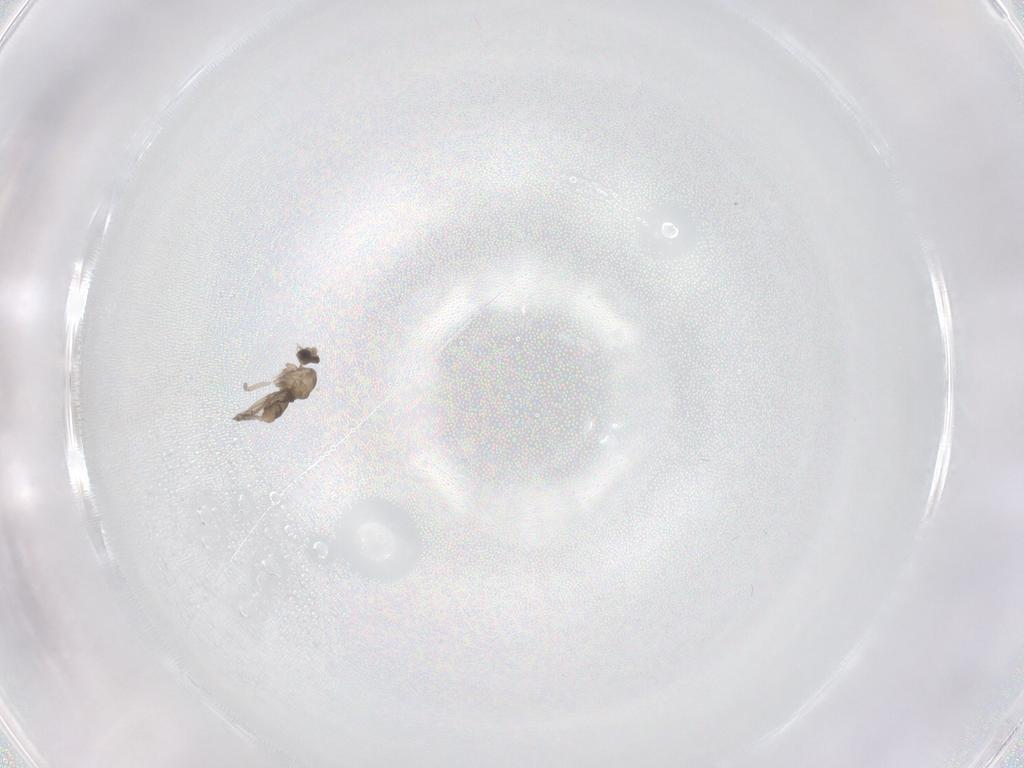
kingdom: Animalia
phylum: Arthropoda
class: Insecta
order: Diptera
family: Cecidomyiidae
